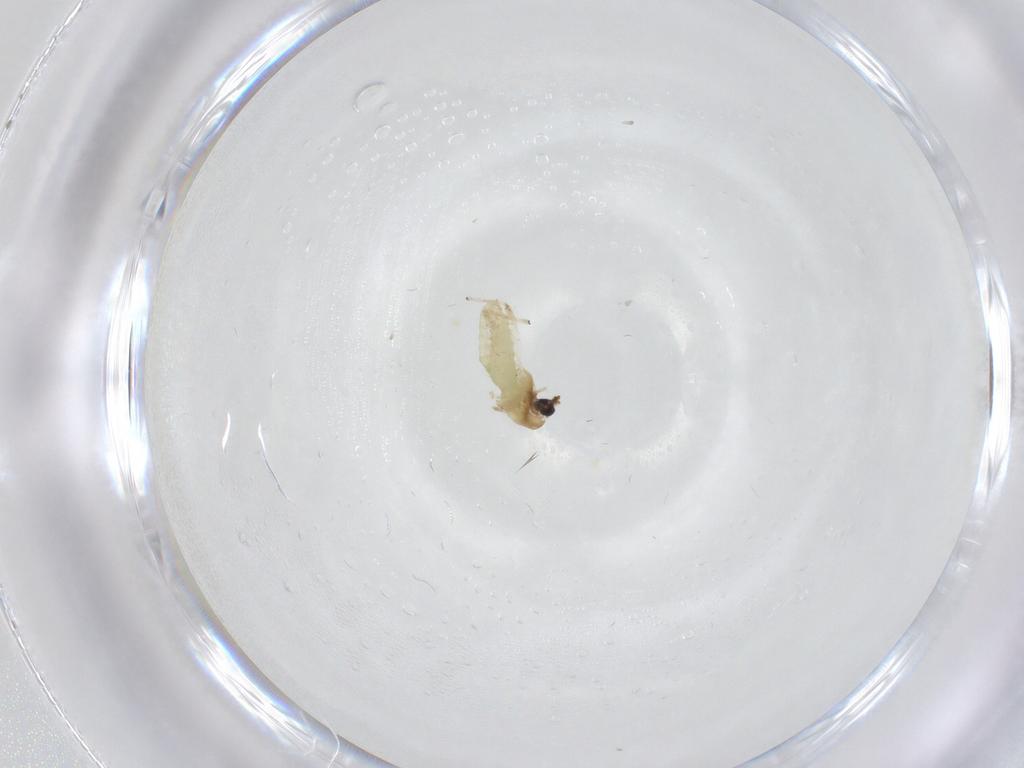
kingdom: Animalia
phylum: Arthropoda
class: Insecta
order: Diptera
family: Chironomidae
